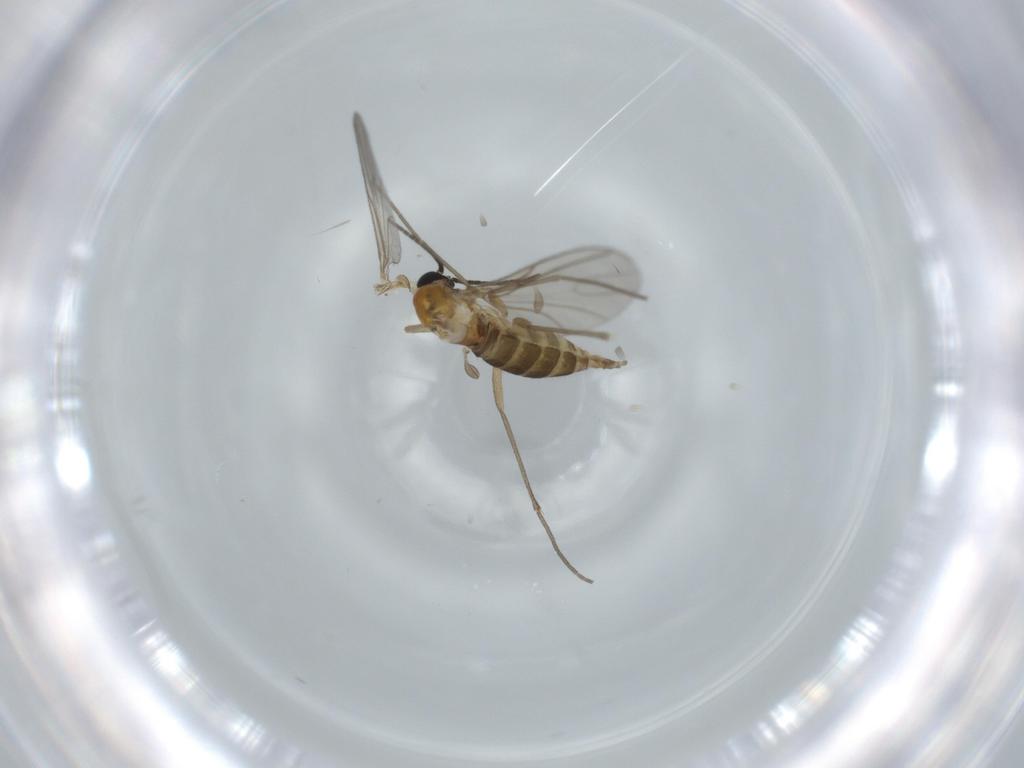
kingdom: Animalia
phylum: Arthropoda
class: Insecta
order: Diptera
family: Sciaridae
